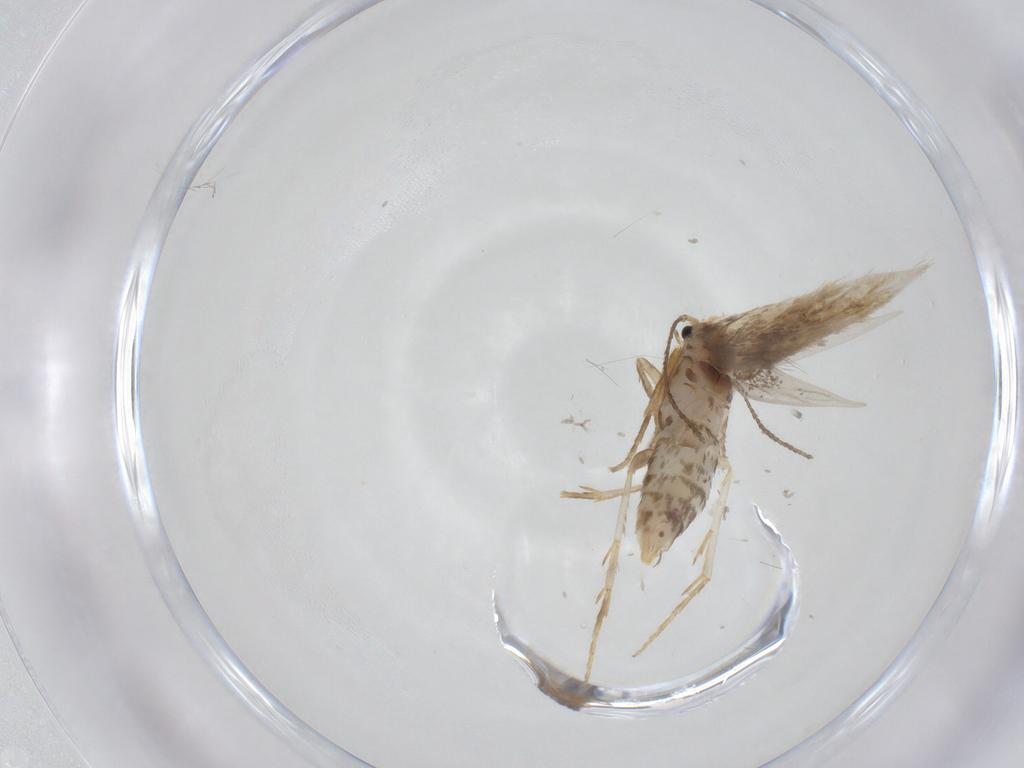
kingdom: Animalia
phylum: Arthropoda
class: Insecta
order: Lepidoptera
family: Nepticulidae
